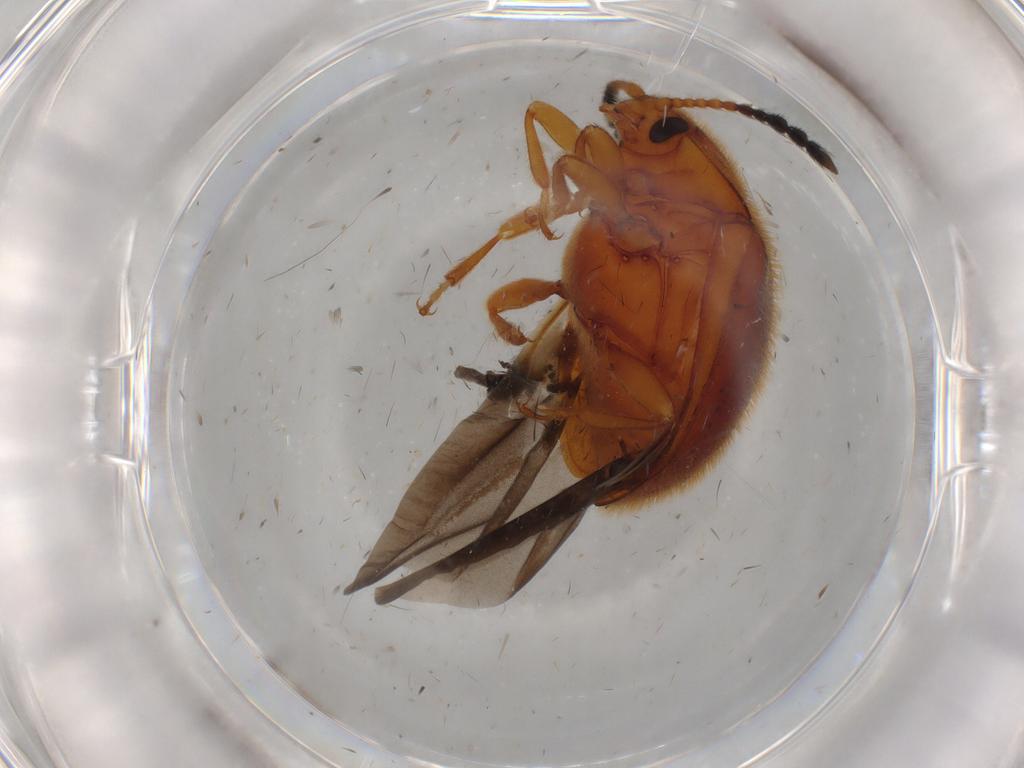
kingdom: Animalia
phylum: Arthropoda
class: Insecta
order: Coleoptera
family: Endomychidae
